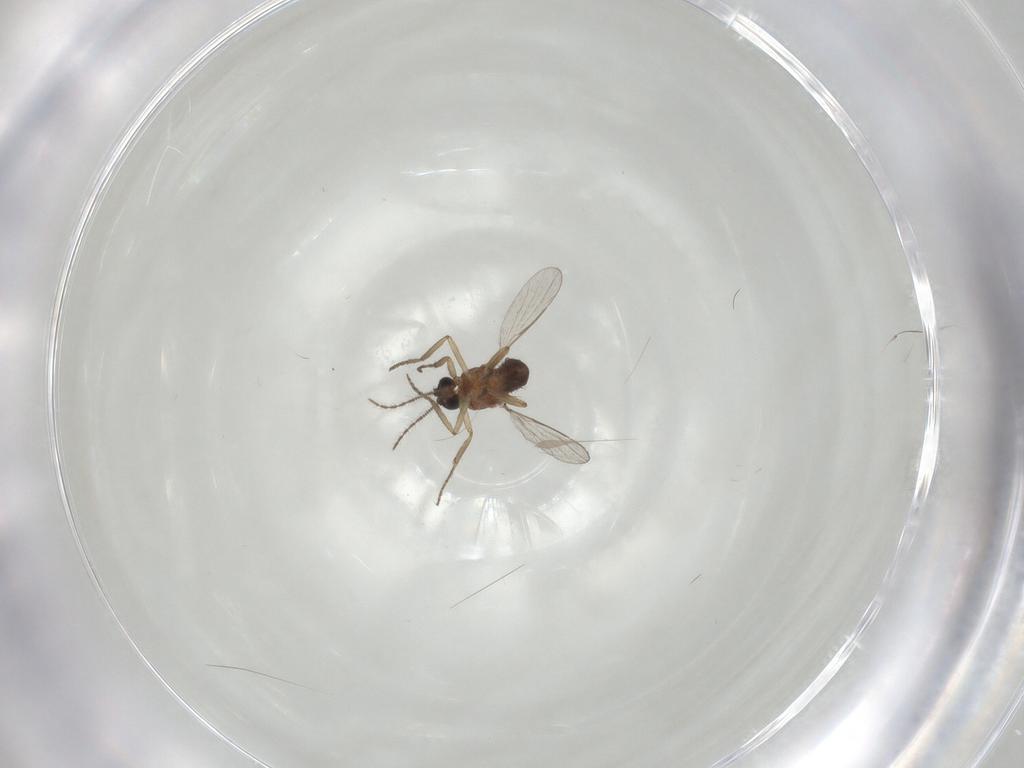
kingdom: Animalia
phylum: Arthropoda
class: Insecta
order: Diptera
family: Ceratopogonidae
